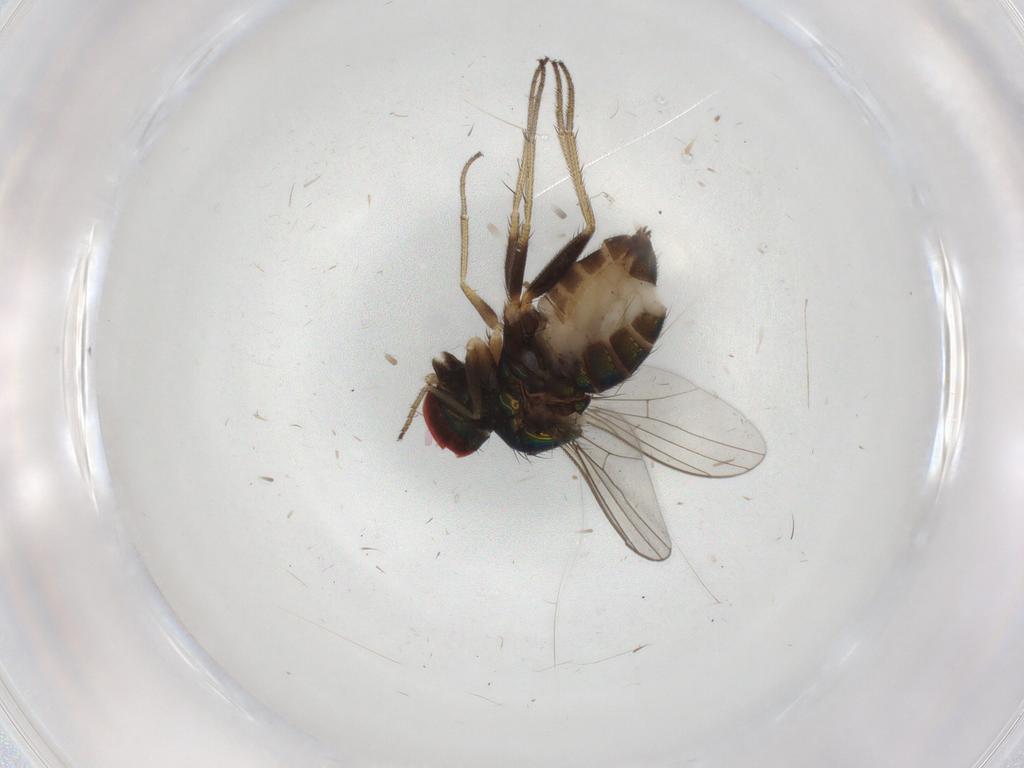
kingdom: Animalia
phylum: Arthropoda
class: Insecta
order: Diptera
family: Dolichopodidae
